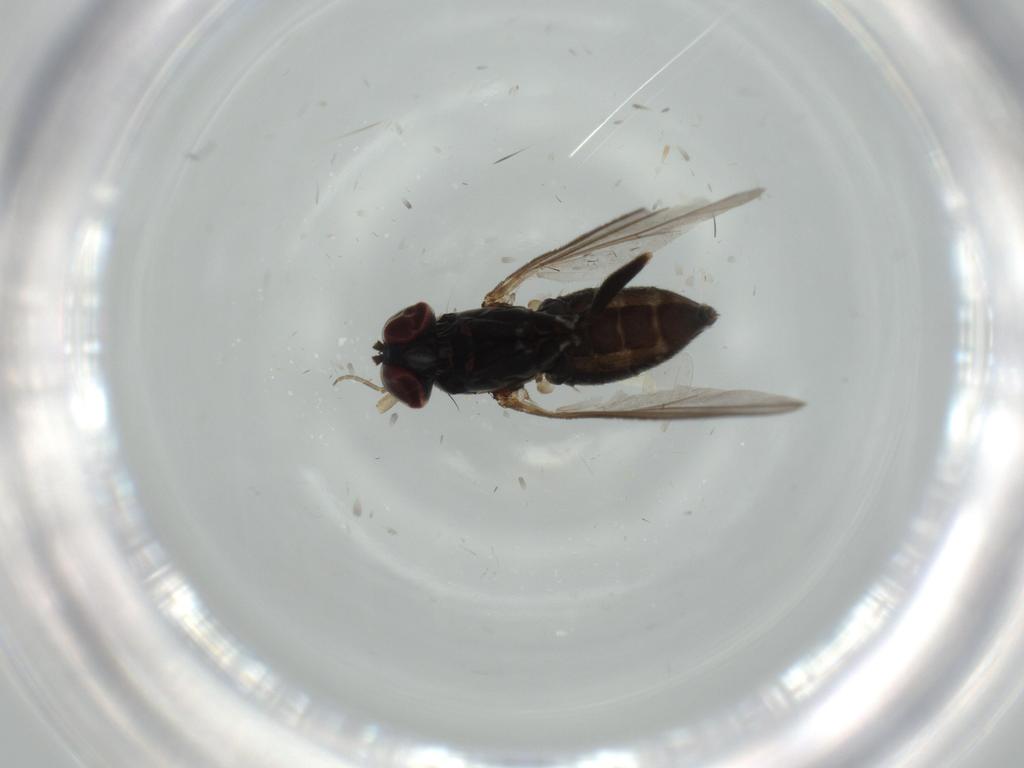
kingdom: Animalia
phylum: Arthropoda
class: Insecta
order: Diptera
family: Dolichopodidae
